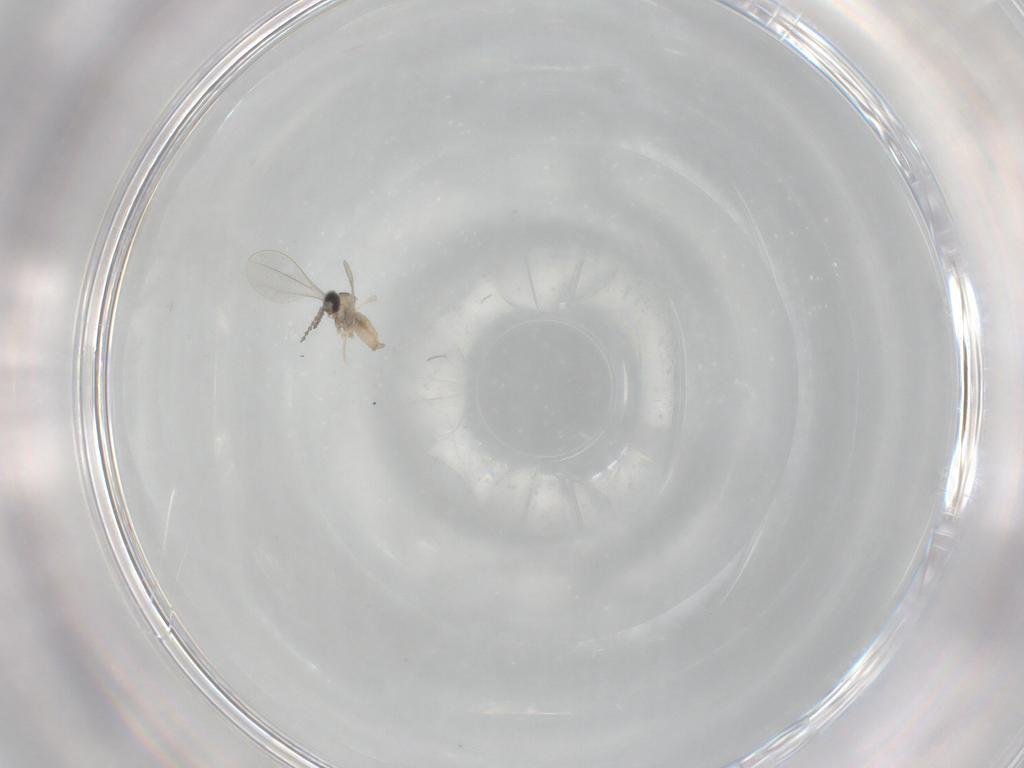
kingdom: Animalia
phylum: Arthropoda
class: Insecta
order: Diptera
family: Cecidomyiidae
